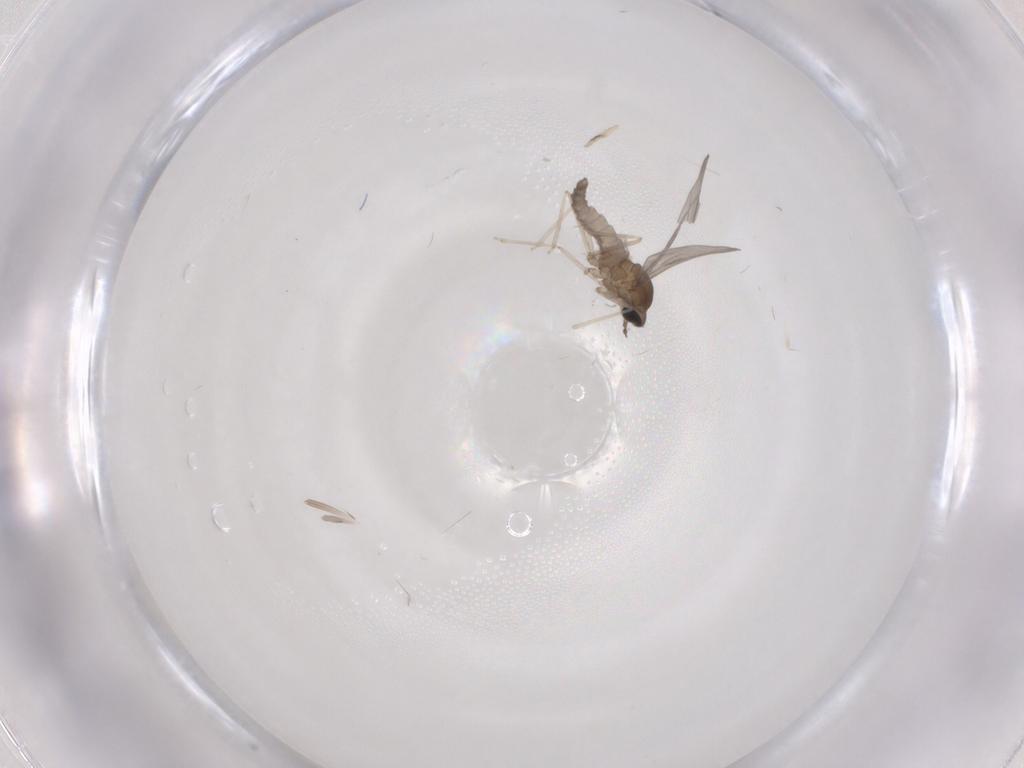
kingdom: Animalia
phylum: Arthropoda
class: Insecta
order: Diptera
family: Cecidomyiidae
